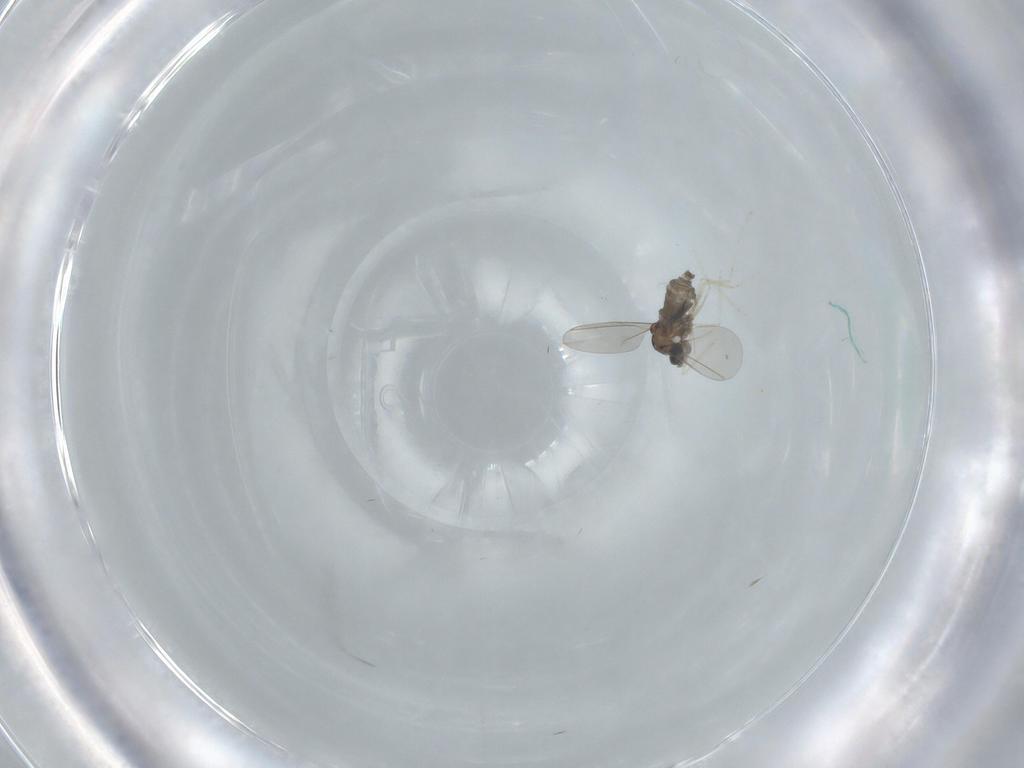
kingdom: Animalia
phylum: Arthropoda
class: Insecta
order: Diptera
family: Cecidomyiidae
